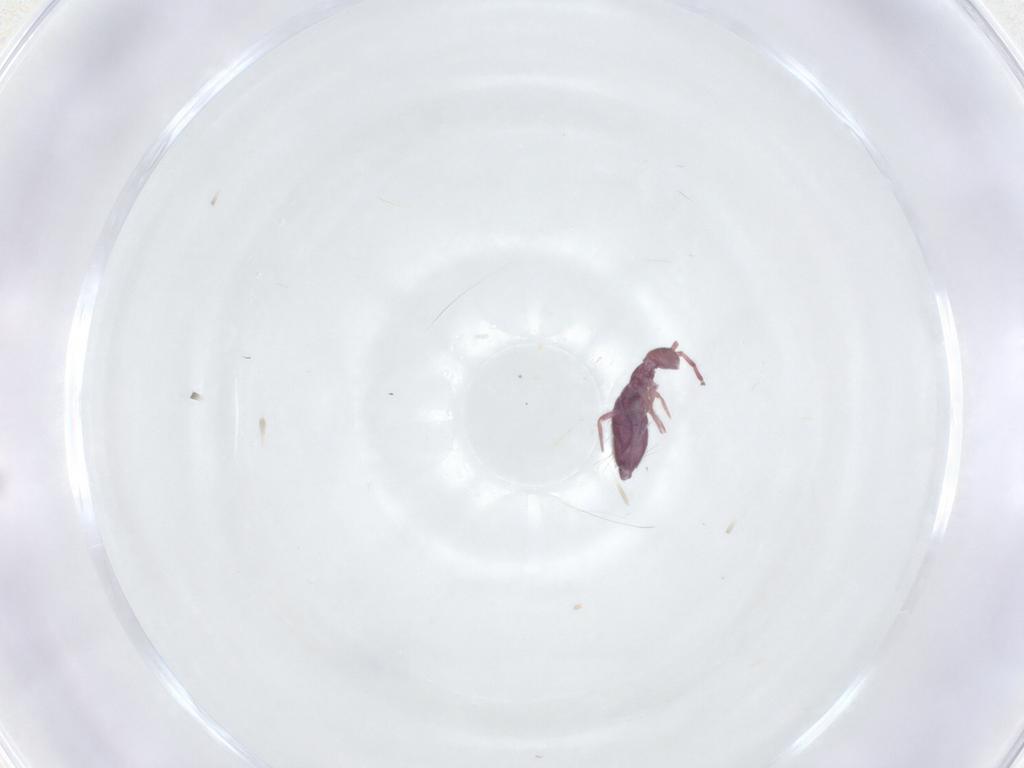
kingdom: Animalia
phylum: Arthropoda
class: Collembola
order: Entomobryomorpha
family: Entomobryidae
